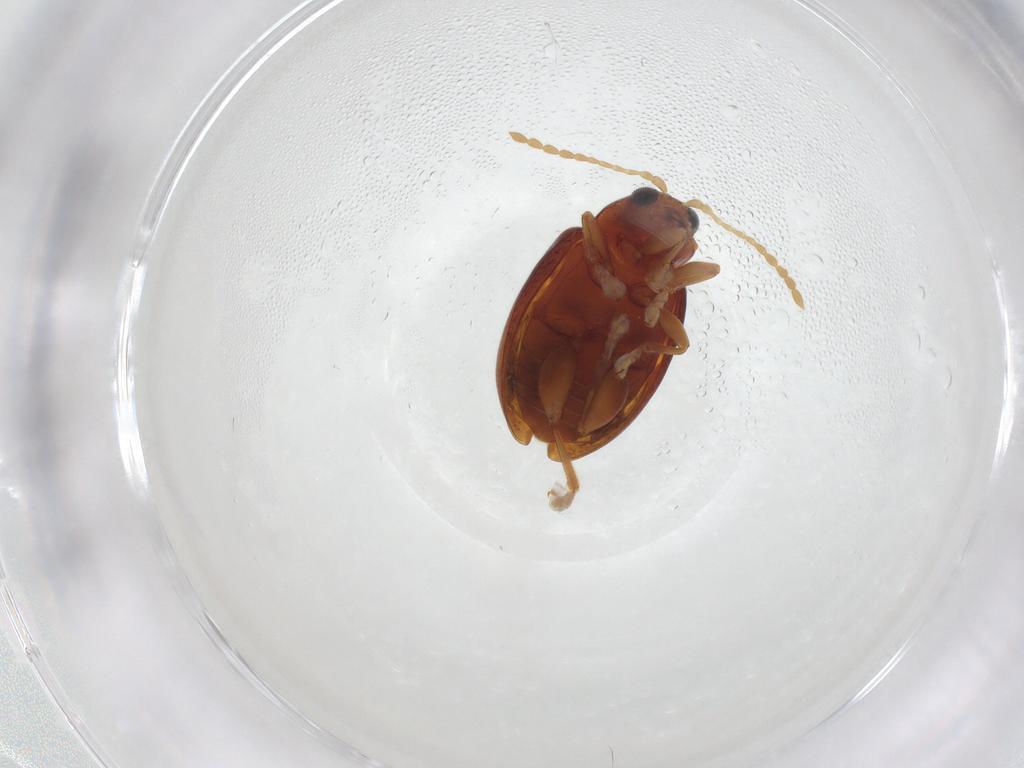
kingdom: Animalia
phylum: Arthropoda
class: Insecta
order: Coleoptera
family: Chrysomelidae
